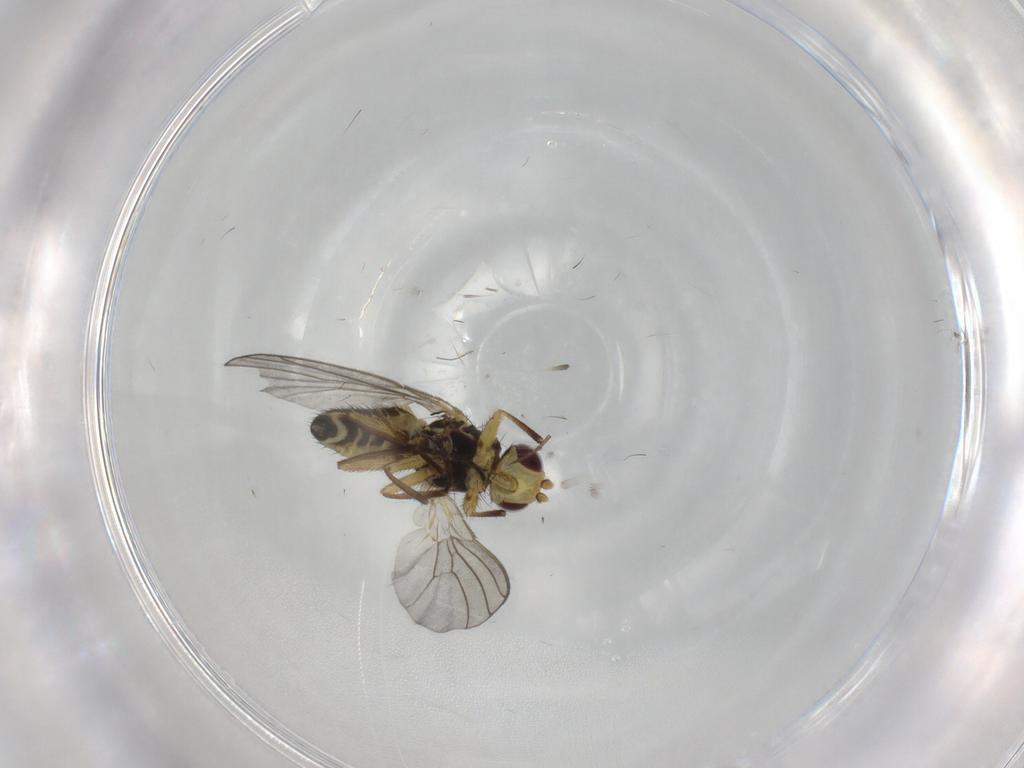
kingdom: Animalia
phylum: Arthropoda
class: Insecta
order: Diptera
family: Agromyzidae
